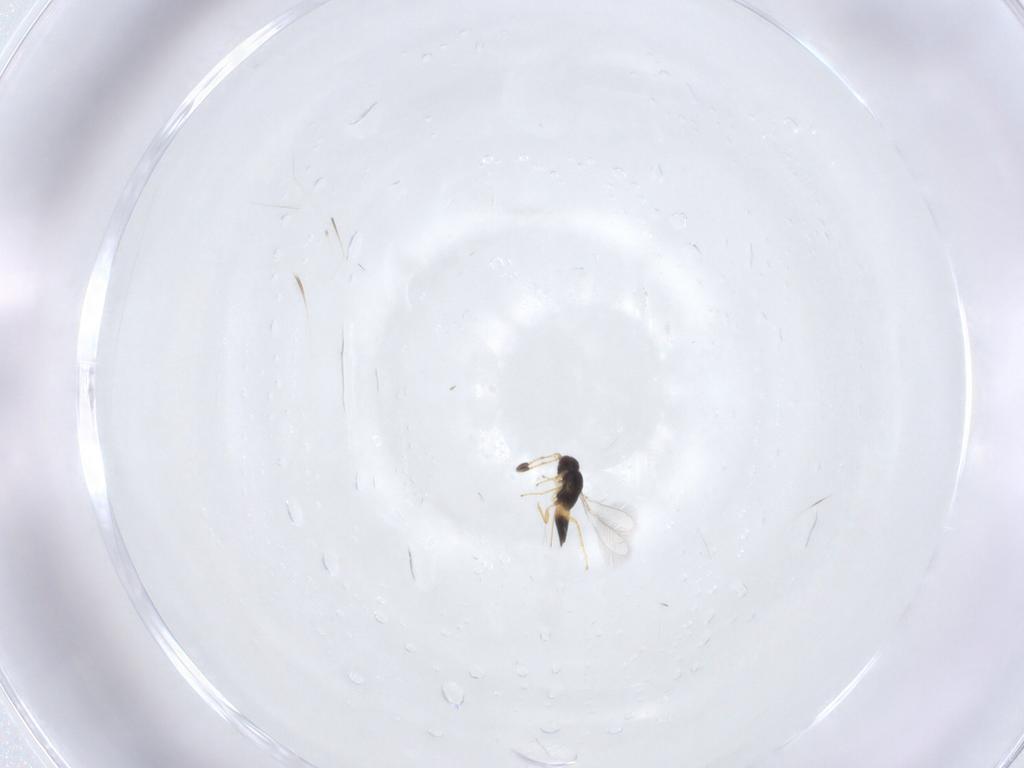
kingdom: Animalia
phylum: Arthropoda
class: Insecta
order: Hymenoptera
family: Mymaridae
